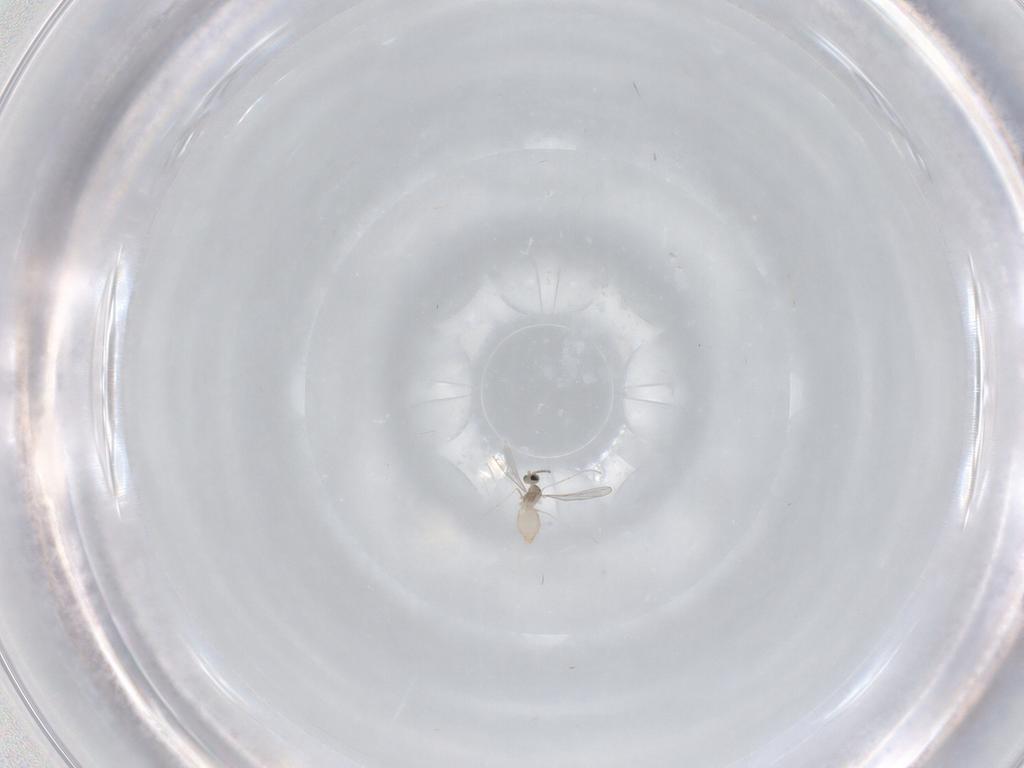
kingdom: Animalia
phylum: Arthropoda
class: Insecta
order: Diptera
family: Cecidomyiidae
